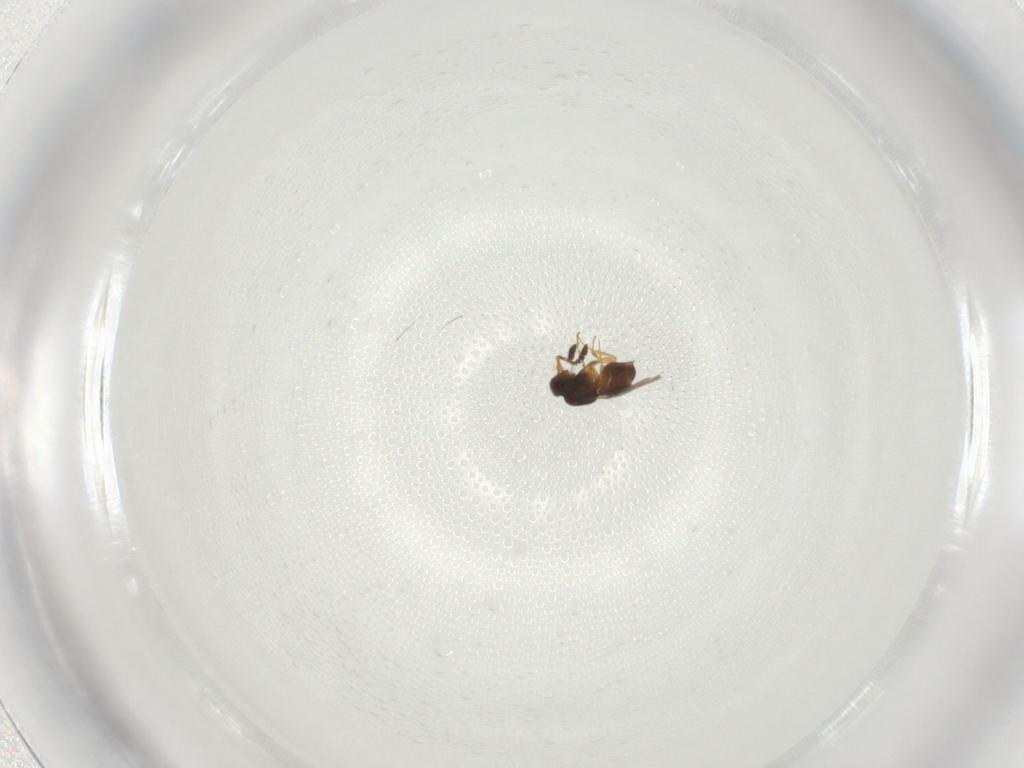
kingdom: Animalia
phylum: Arthropoda
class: Insecta
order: Hymenoptera
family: Ceraphronidae
